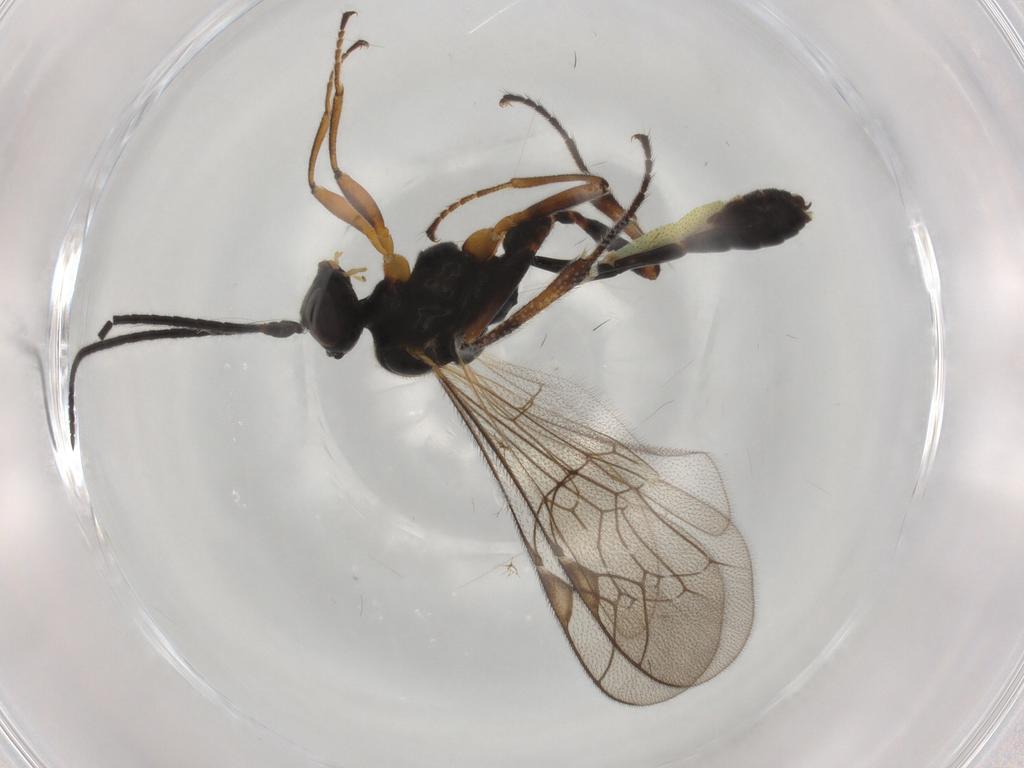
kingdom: Animalia
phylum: Arthropoda
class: Insecta
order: Hymenoptera
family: Ichneumonidae
